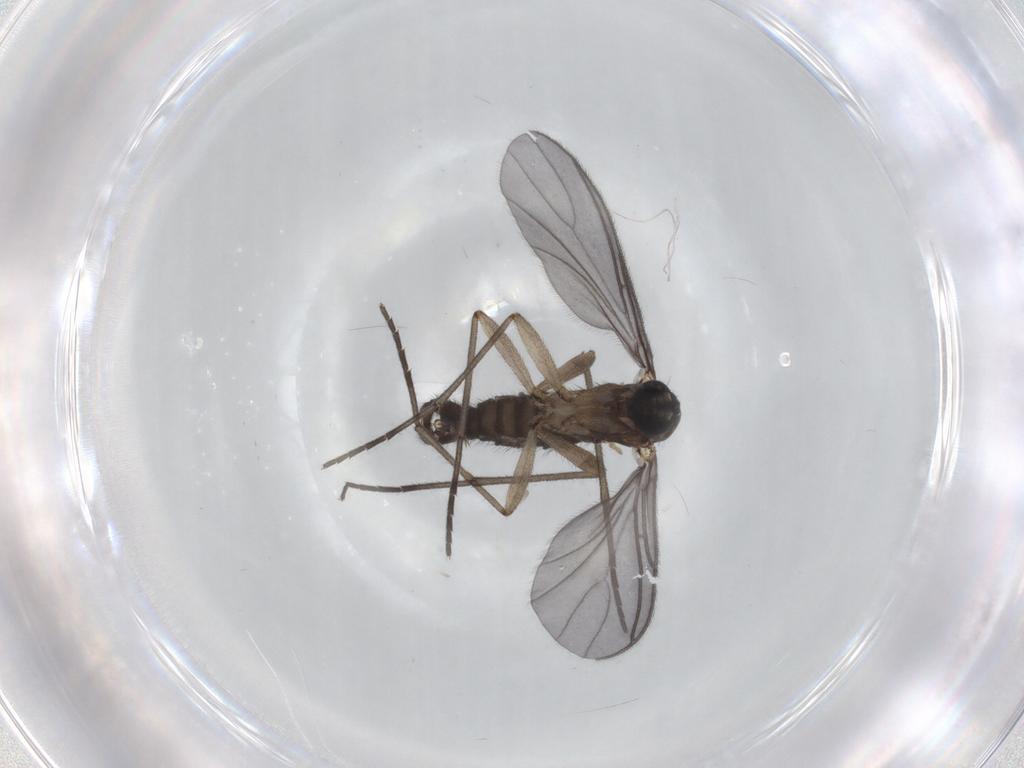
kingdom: Animalia
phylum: Arthropoda
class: Insecta
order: Diptera
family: Sciaridae
